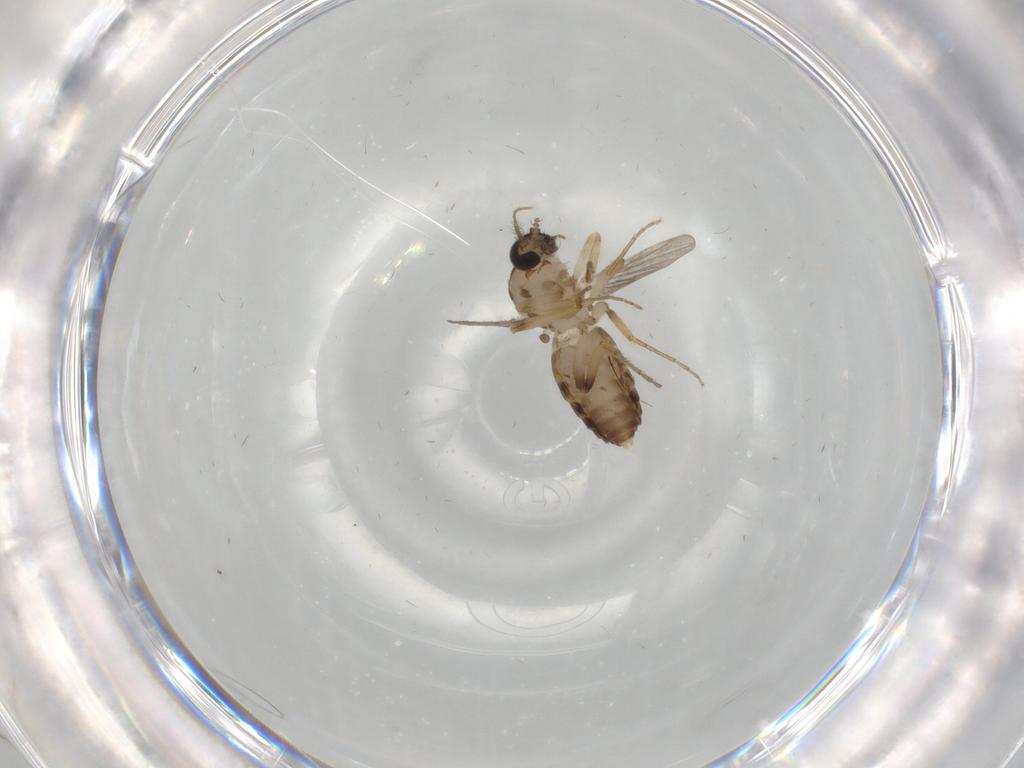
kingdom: Animalia
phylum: Arthropoda
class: Insecta
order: Diptera
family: Ceratopogonidae
